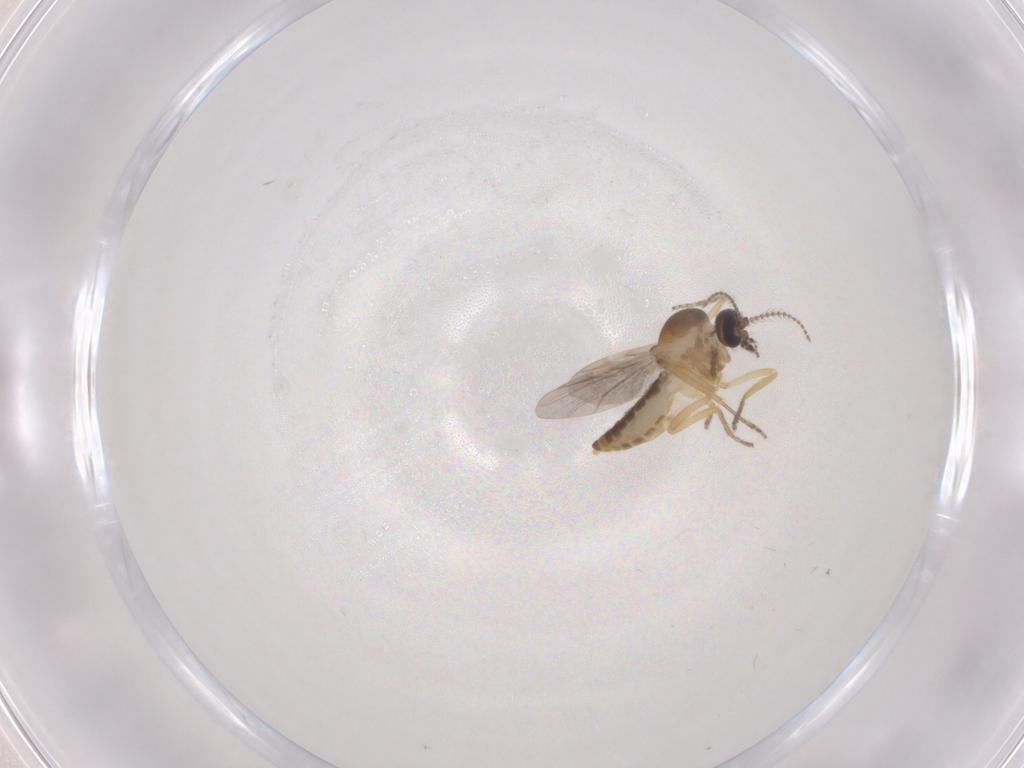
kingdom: Animalia
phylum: Arthropoda
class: Insecta
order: Diptera
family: Ceratopogonidae
